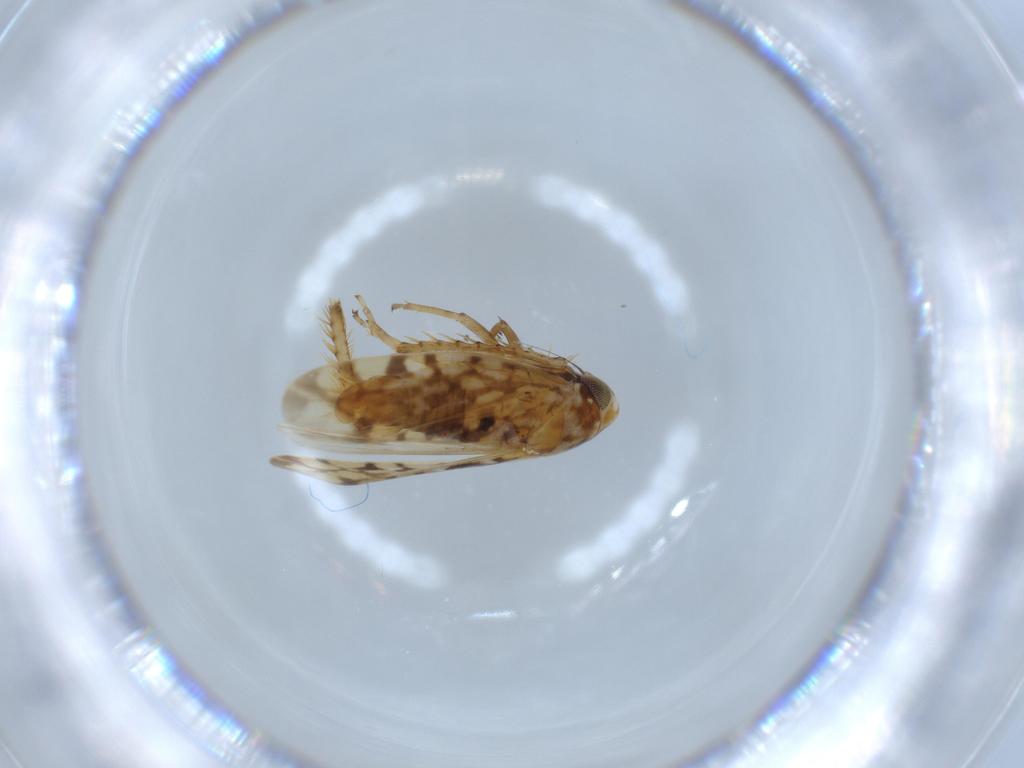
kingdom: Animalia
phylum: Arthropoda
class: Insecta
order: Hemiptera
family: Cicadellidae
